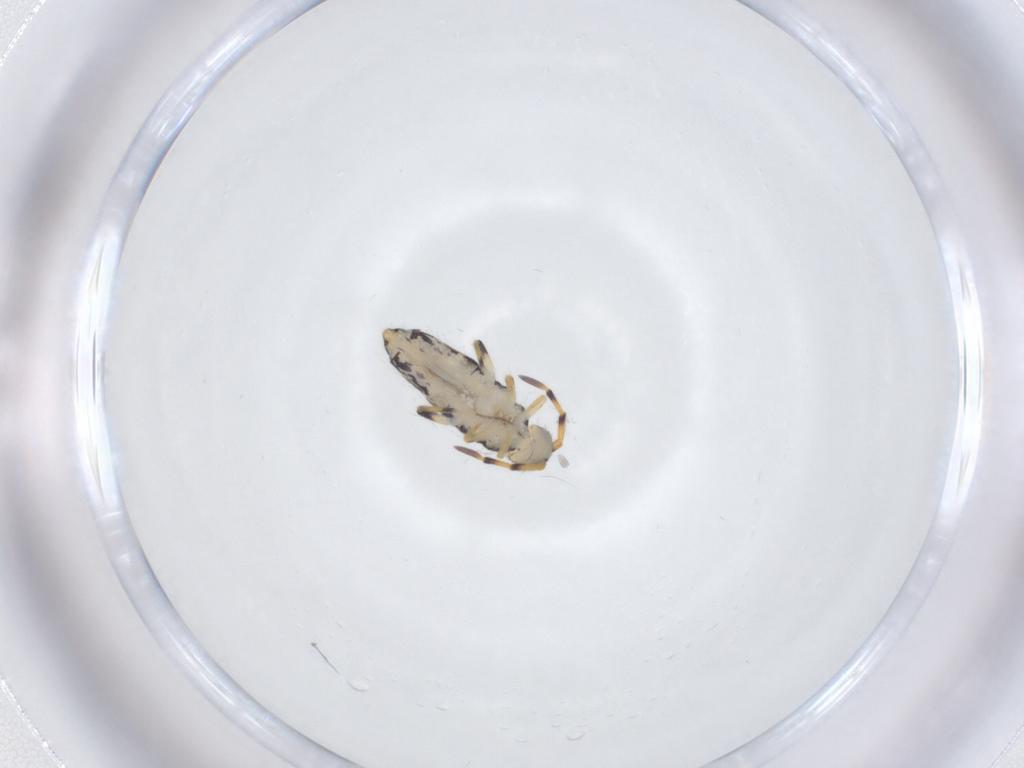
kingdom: Animalia
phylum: Arthropoda
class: Collembola
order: Entomobryomorpha
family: Isotomidae
